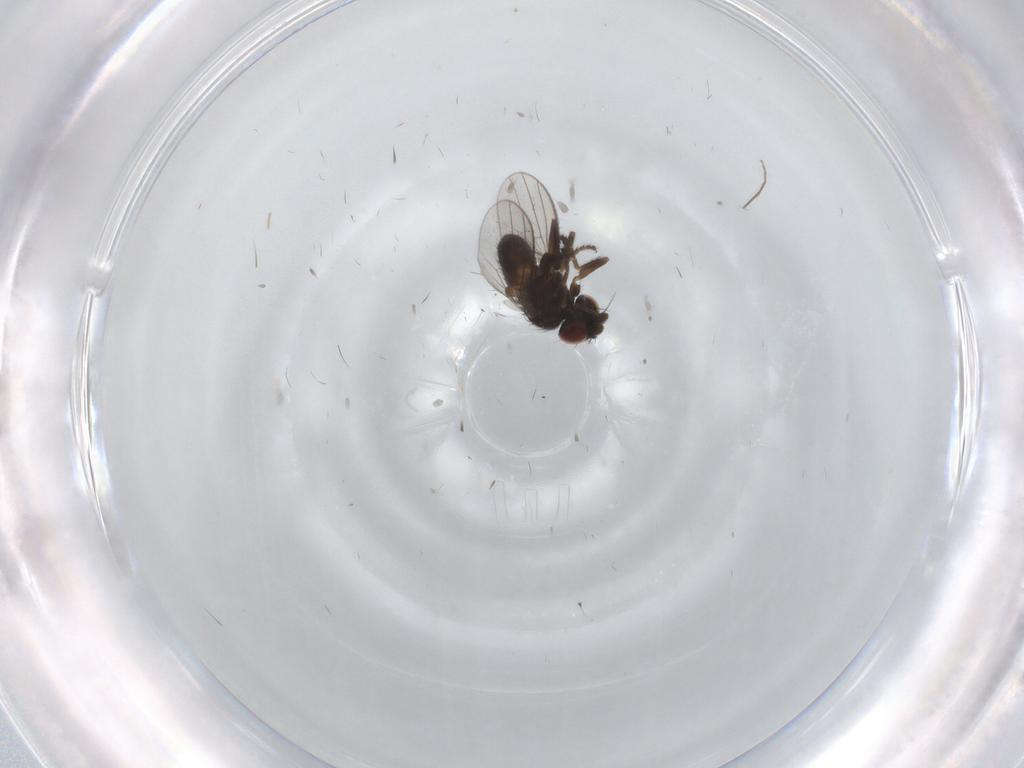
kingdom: Animalia
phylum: Arthropoda
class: Insecta
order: Diptera
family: Milichiidae
